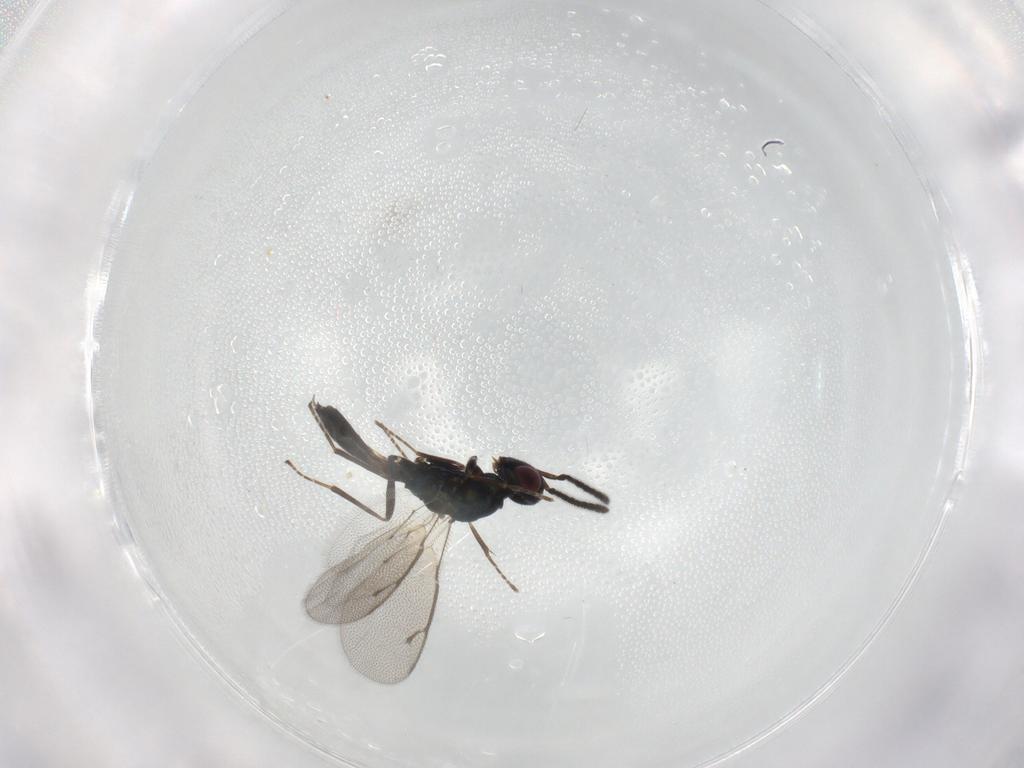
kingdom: Animalia
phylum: Arthropoda
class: Insecta
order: Hymenoptera
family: Pteromalidae
